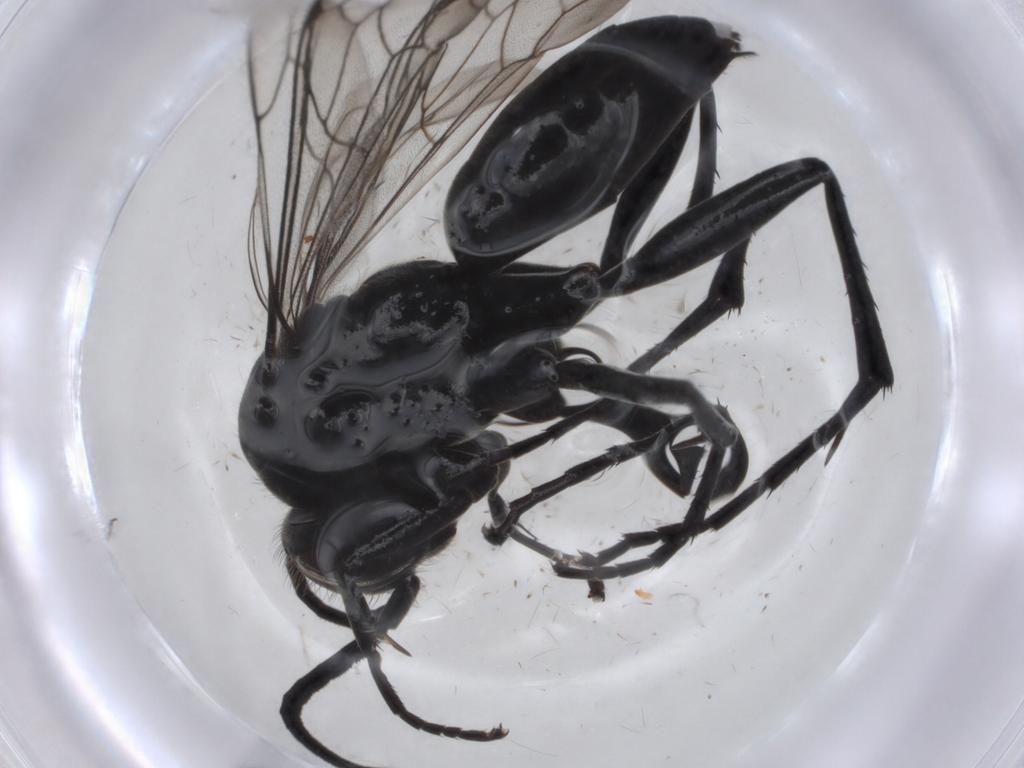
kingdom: Animalia
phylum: Arthropoda
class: Insecta
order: Hymenoptera
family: Pompilidae
